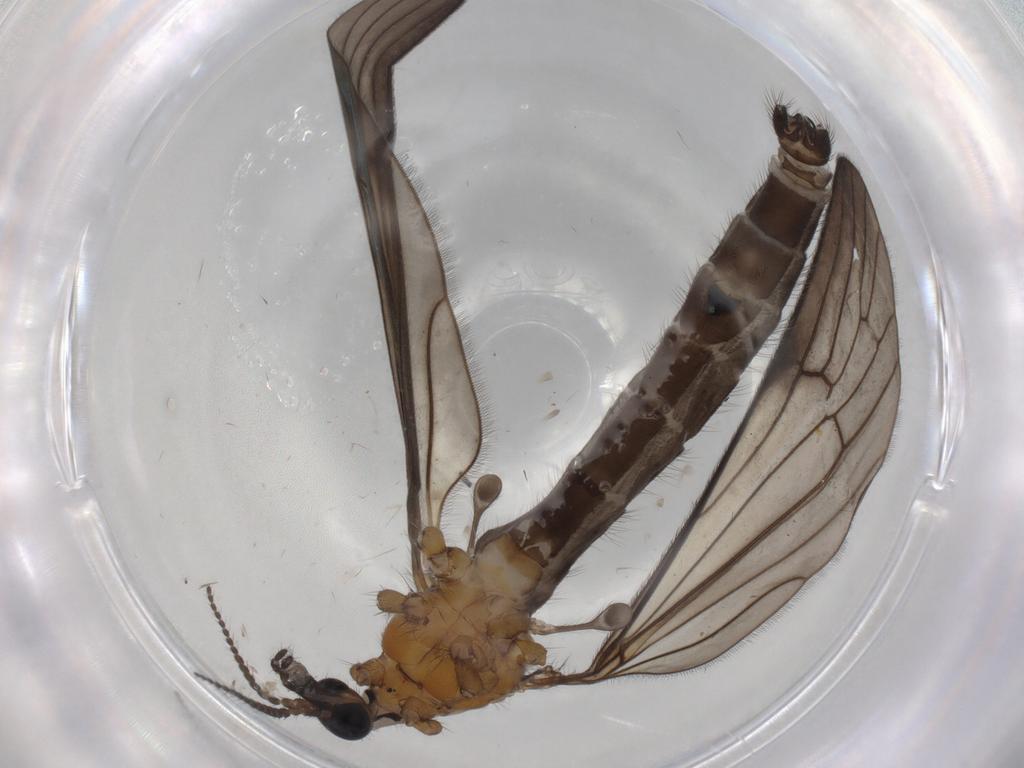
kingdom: Animalia
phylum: Arthropoda
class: Insecta
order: Diptera
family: Limoniidae
